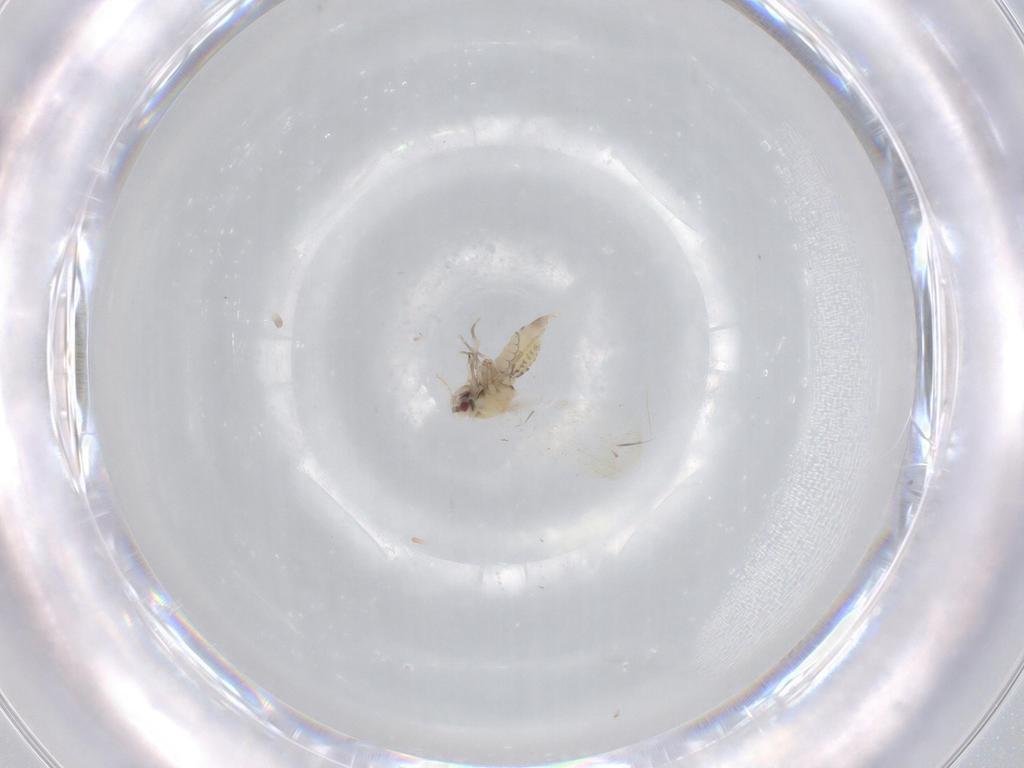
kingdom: Animalia
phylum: Arthropoda
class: Insecta
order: Hemiptera
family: Aleyrodidae
